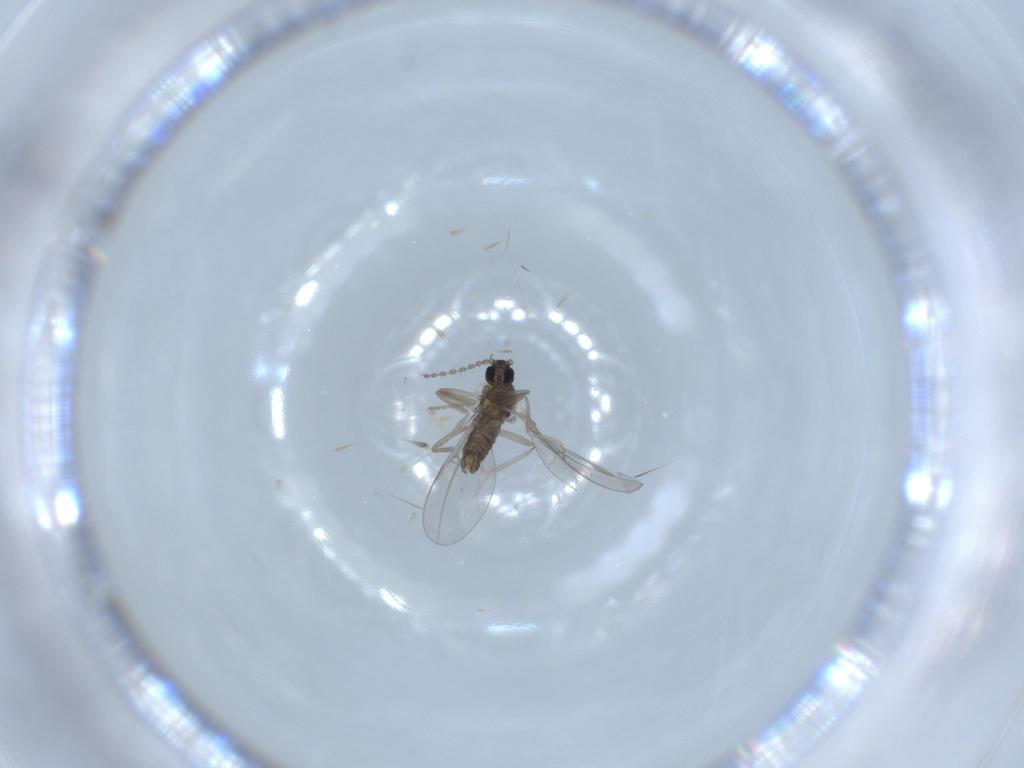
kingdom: Animalia
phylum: Arthropoda
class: Insecta
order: Diptera
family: Cecidomyiidae
